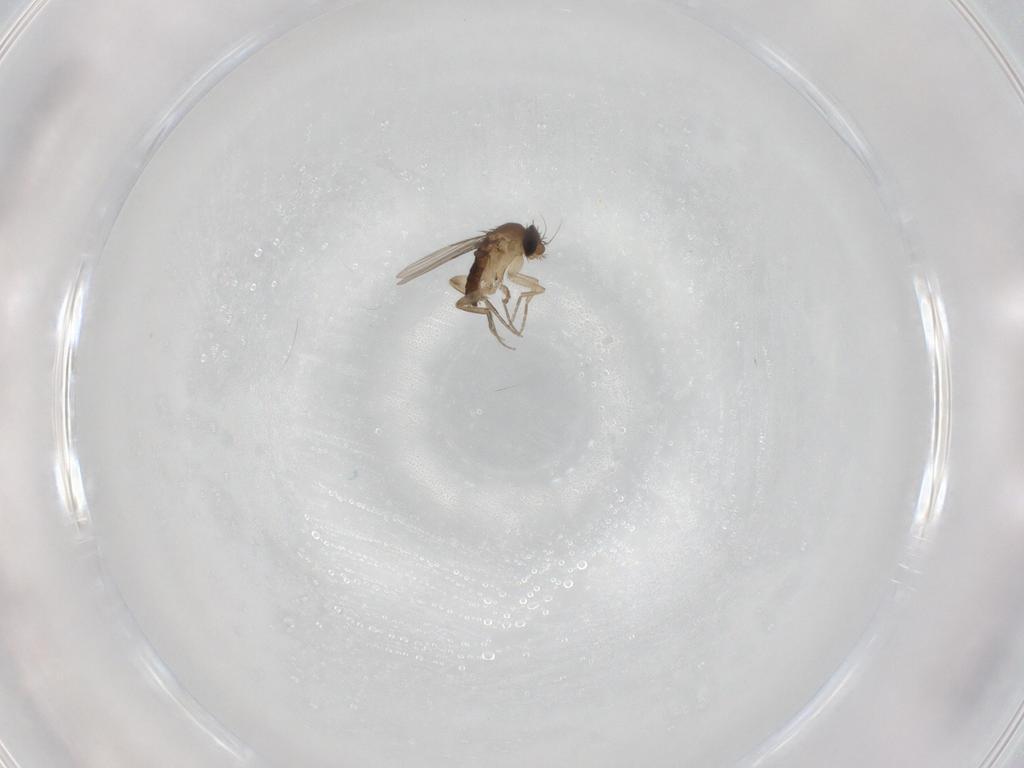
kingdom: Animalia
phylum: Arthropoda
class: Insecta
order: Diptera
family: Phoridae
